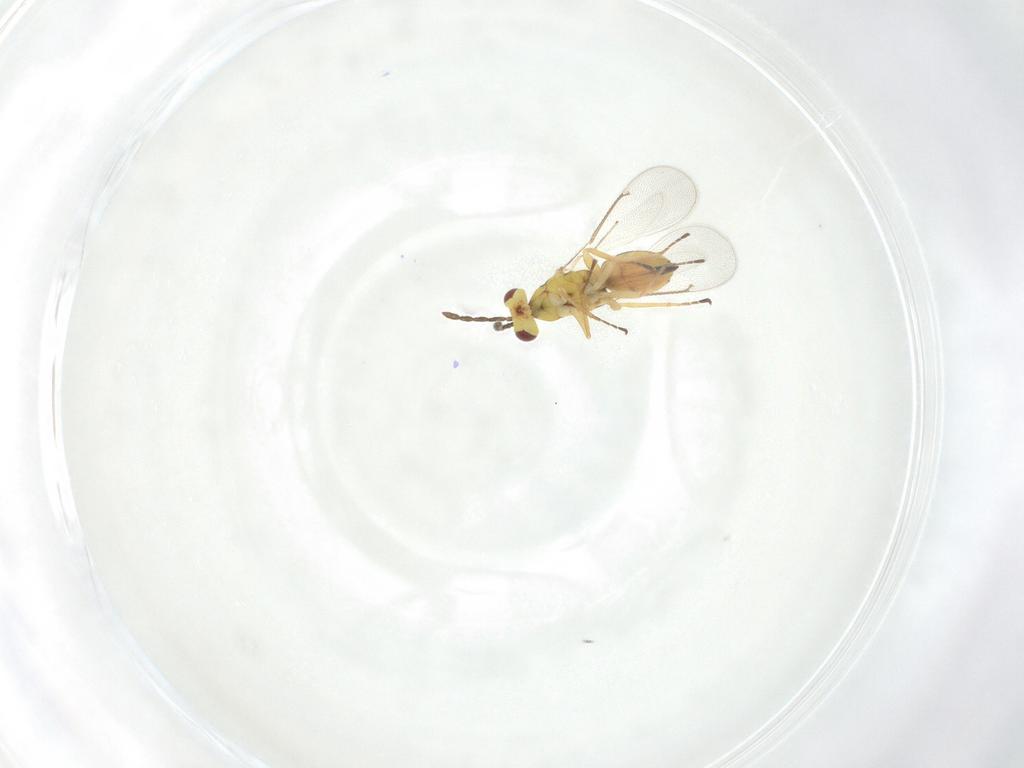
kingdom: Animalia
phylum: Arthropoda
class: Insecta
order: Hymenoptera
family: Eulophidae
